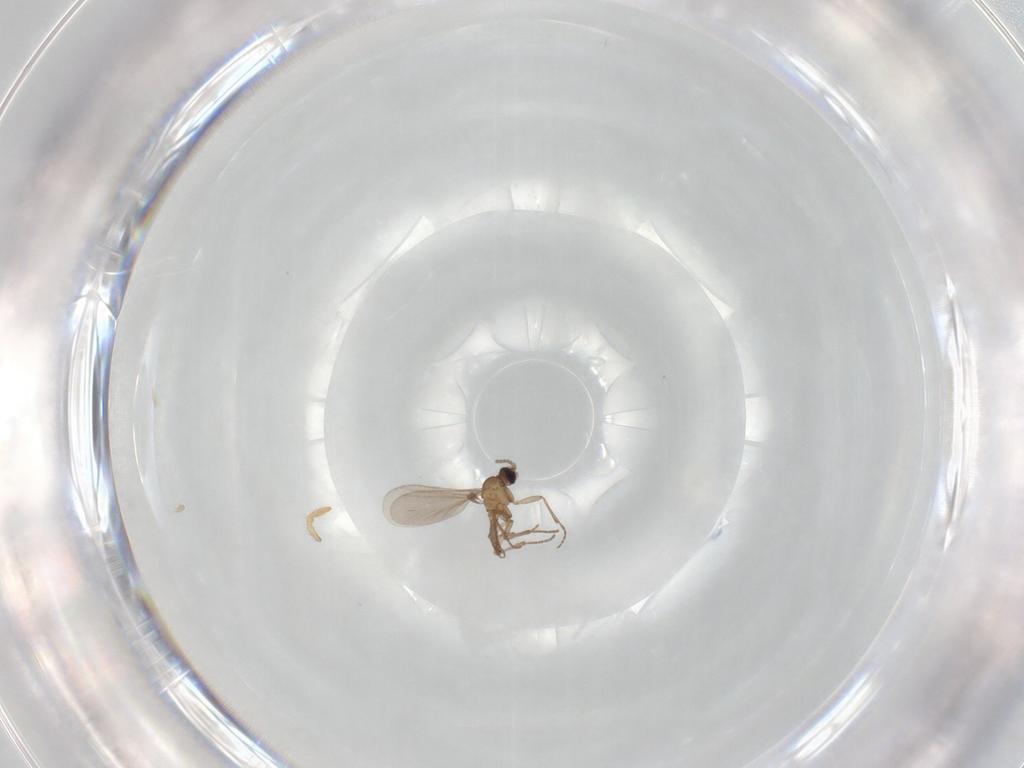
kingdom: Animalia
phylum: Arthropoda
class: Insecta
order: Diptera
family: Sciaridae
